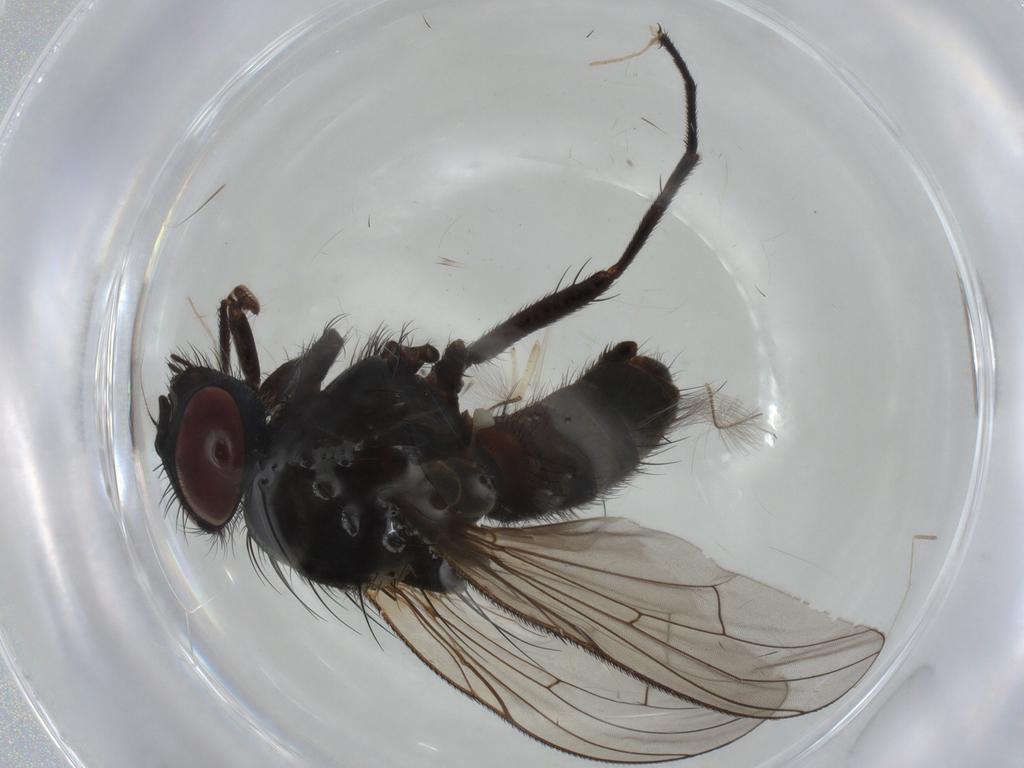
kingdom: Animalia
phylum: Arthropoda
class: Insecta
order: Diptera
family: Muscidae
